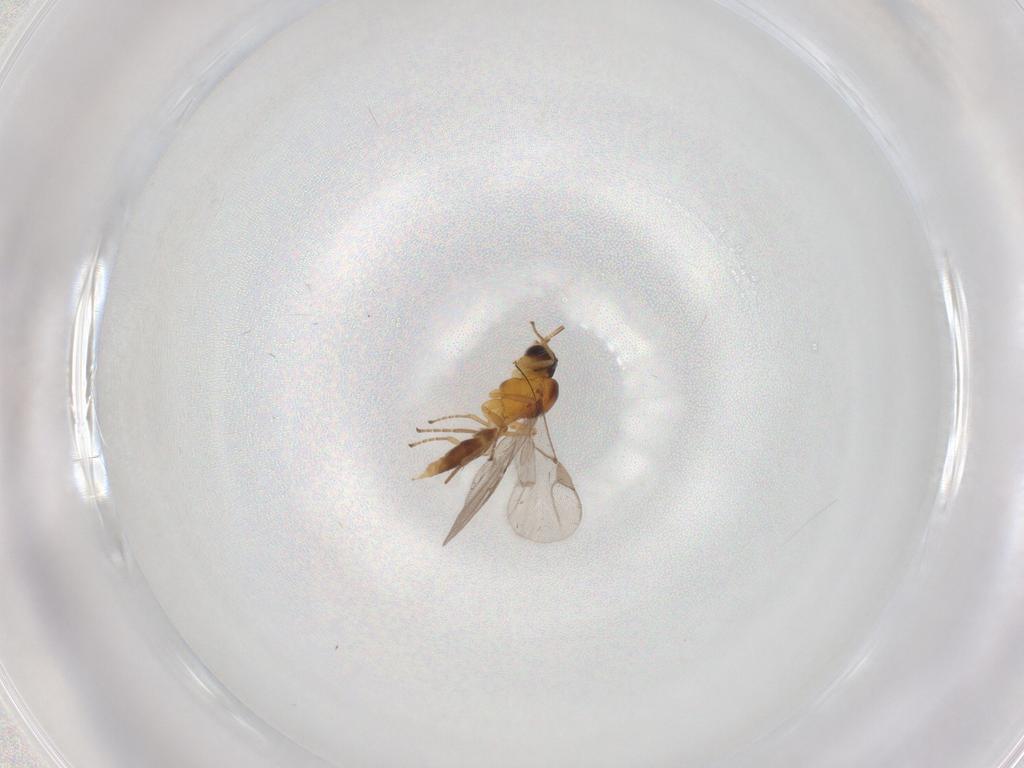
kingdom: Animalia
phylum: Arthropoda
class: Insecta
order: Hymenoptera
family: Braconidae
